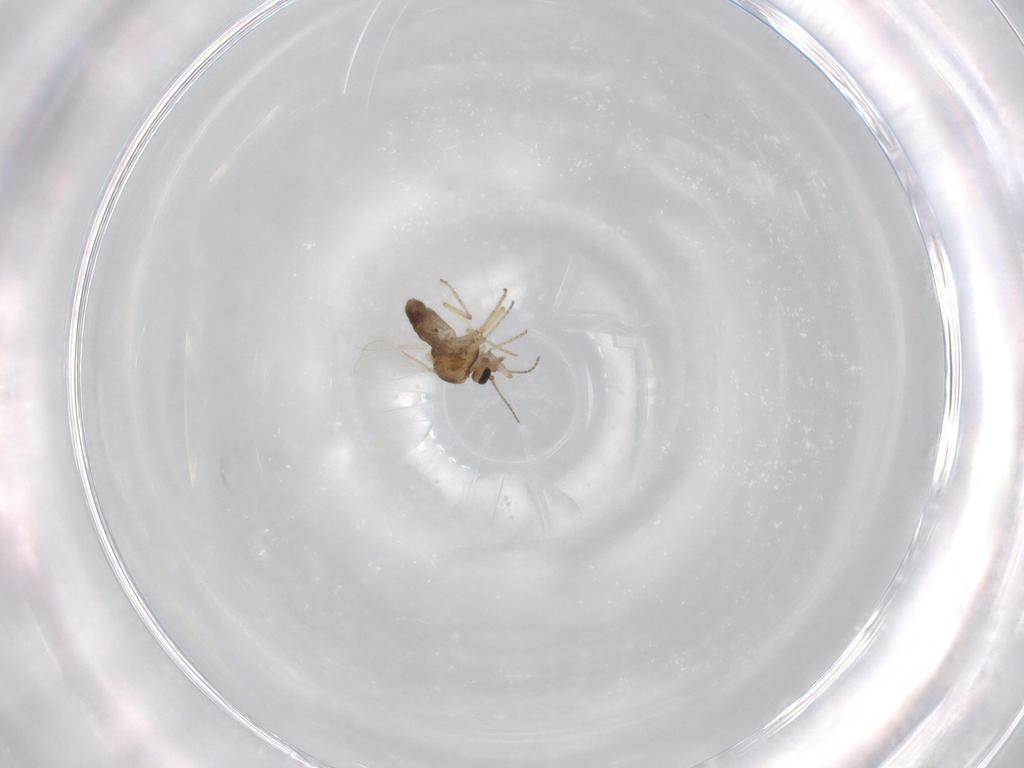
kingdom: Animalia
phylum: Arthropoda
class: Insecta
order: Diptera
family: Ceratopogonidae
